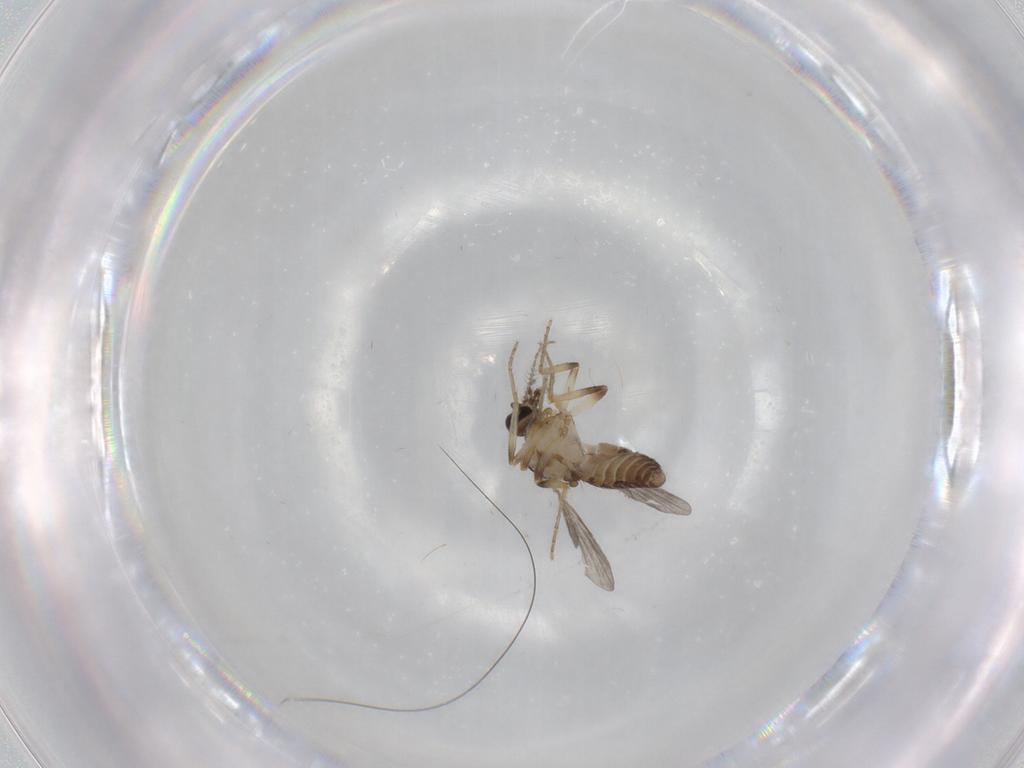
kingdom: Animalia
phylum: Arthropoda
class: Insecta
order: Diptera
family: Ceratopogonidae
